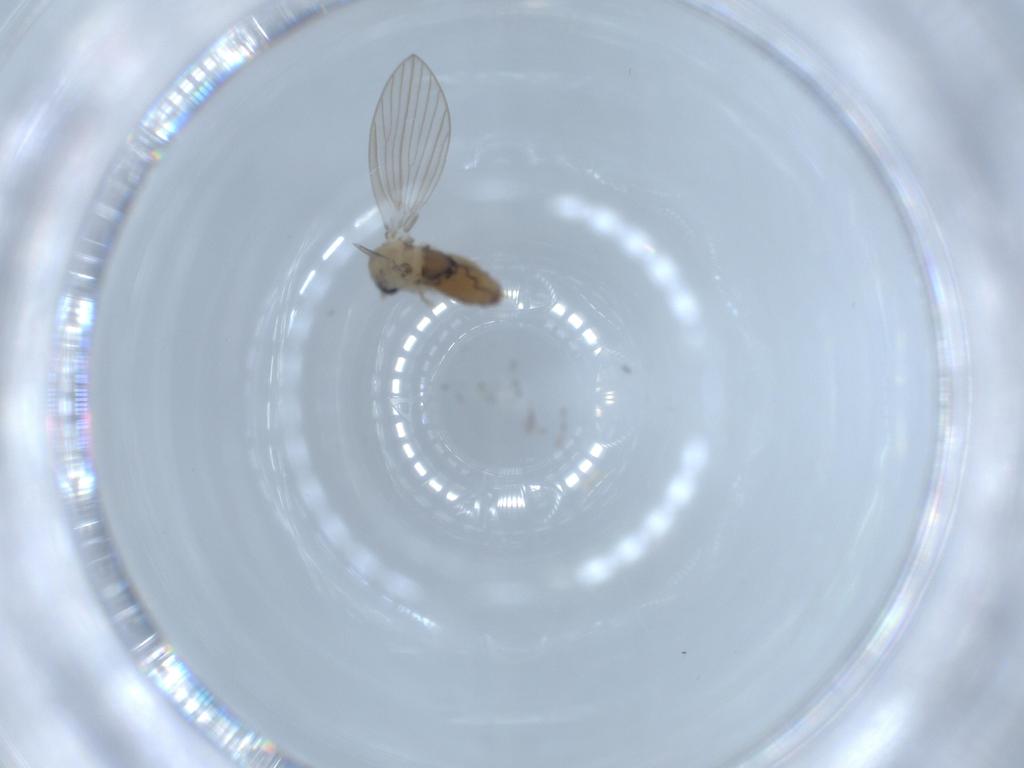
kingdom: Animalia
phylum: Arthropoda
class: Insecta
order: Diptera
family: Psychodidae
